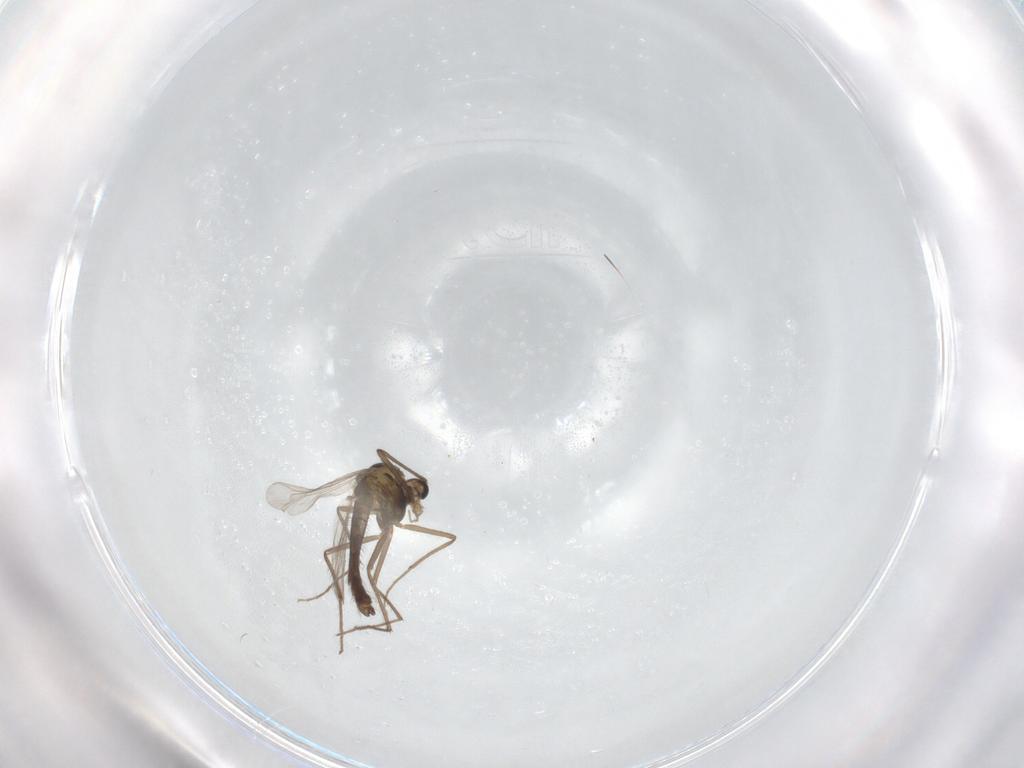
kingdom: Animalia
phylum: Arthropoda
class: Insecta
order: Diptera
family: Chironomidae
